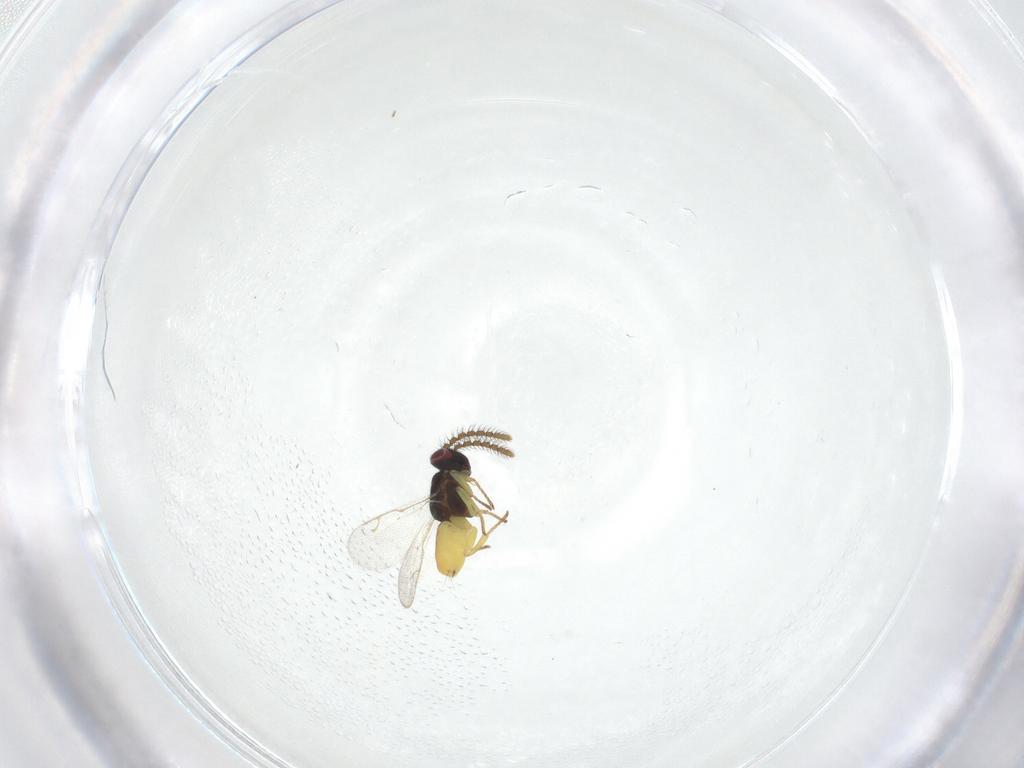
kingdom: Animalia
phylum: Arthropoda
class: Insecta
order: Hymenoptera
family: Trichogrammatidae
